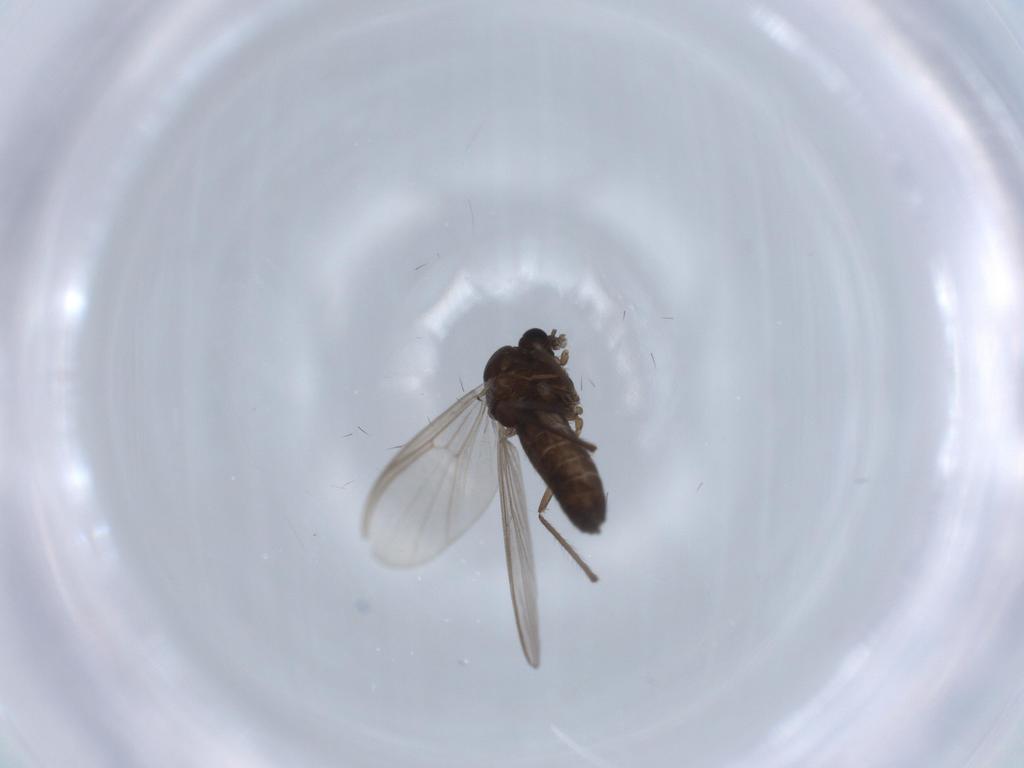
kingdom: Animalia
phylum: Arthropoda
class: Insecta
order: Diptera
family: Chironomidae
